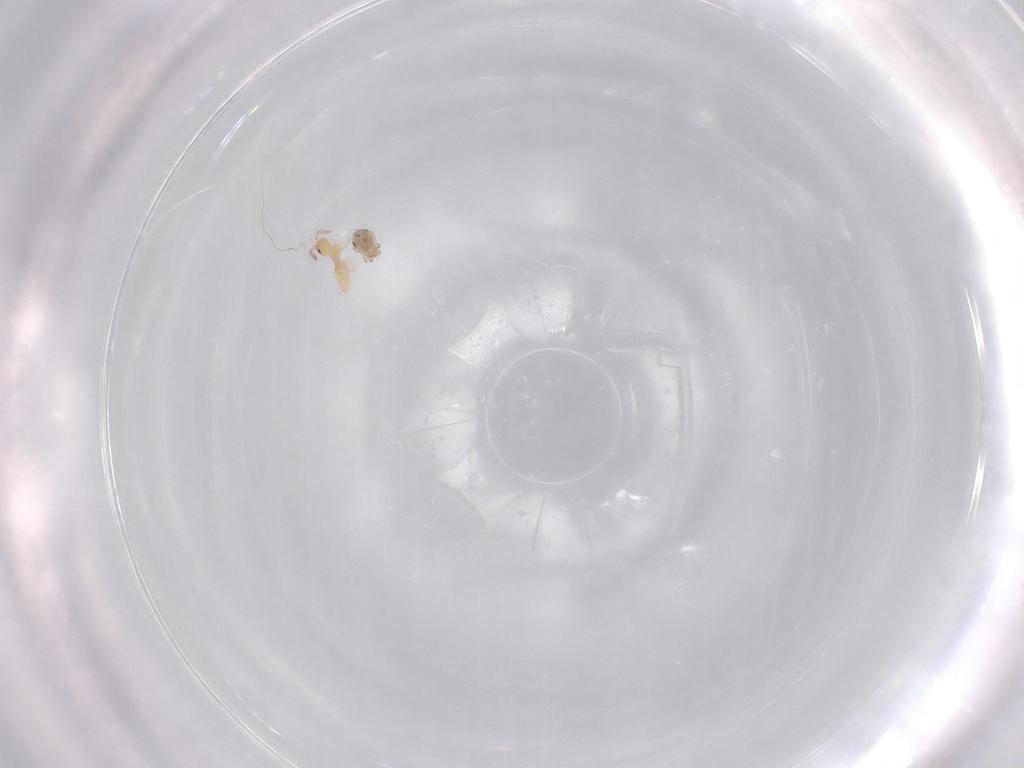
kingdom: Animalia
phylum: Arthropoda
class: Arachnida
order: Sarcoptiformes
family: Humerobatidae
